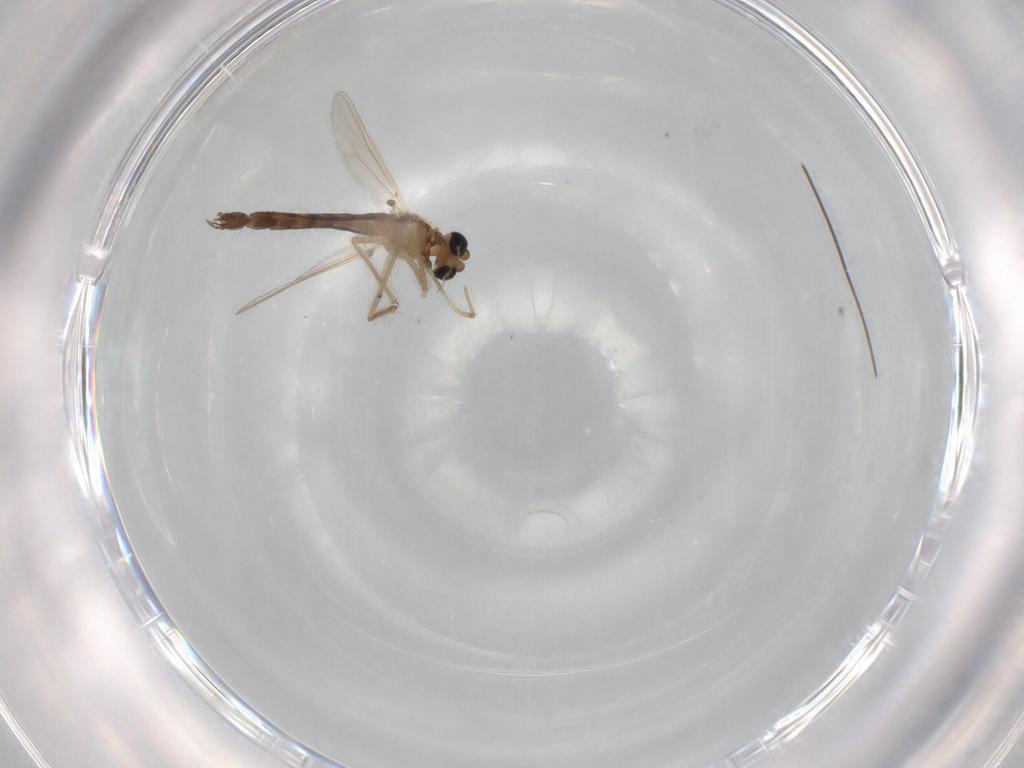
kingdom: Animalia
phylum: Arthropoda
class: Insecta
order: Diptera
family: Chironomidae
